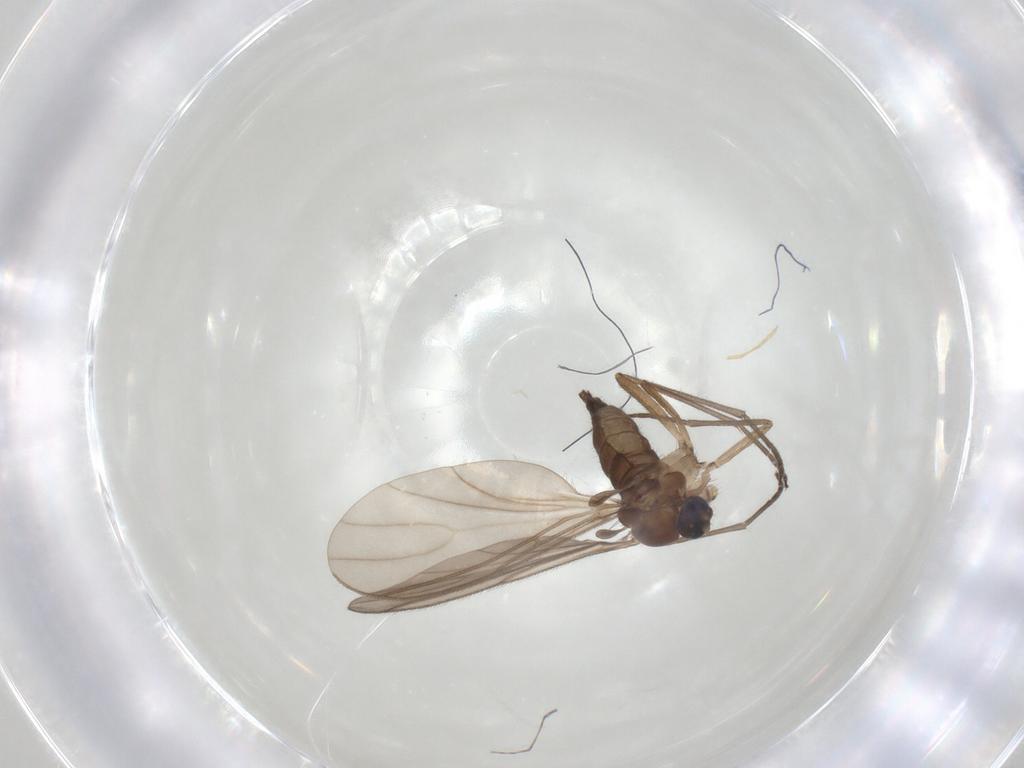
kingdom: Animalia
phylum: Arthropoda
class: Insecta
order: Diptera
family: Sciaridae
